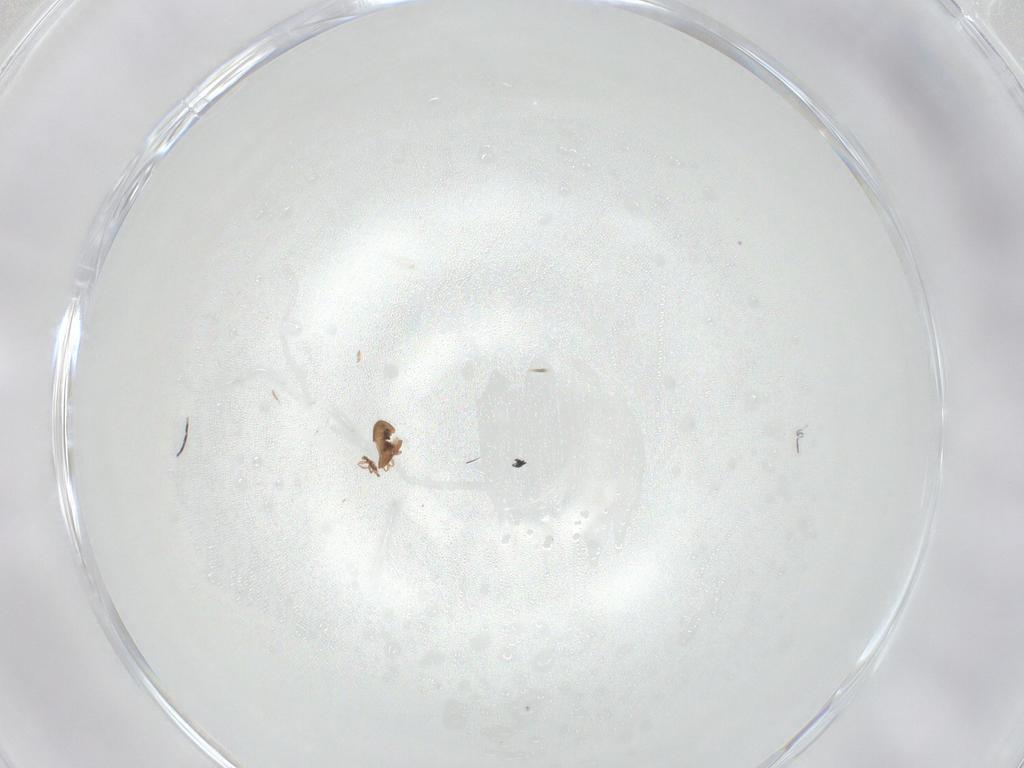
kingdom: Animalia
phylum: Arthropoda
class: Arachnida
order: Sarcoptiformes
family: Oribatulidae
